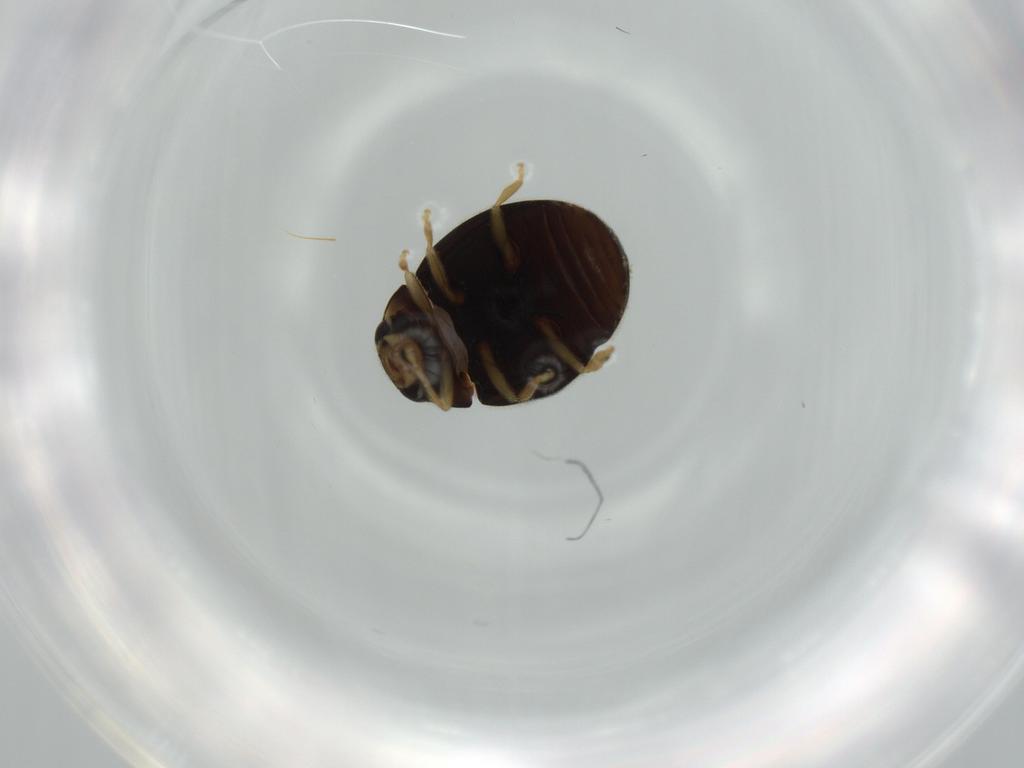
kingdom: Animalia
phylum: Arthropoda
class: Insecta
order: Coleoptera
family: Coccinellidae
